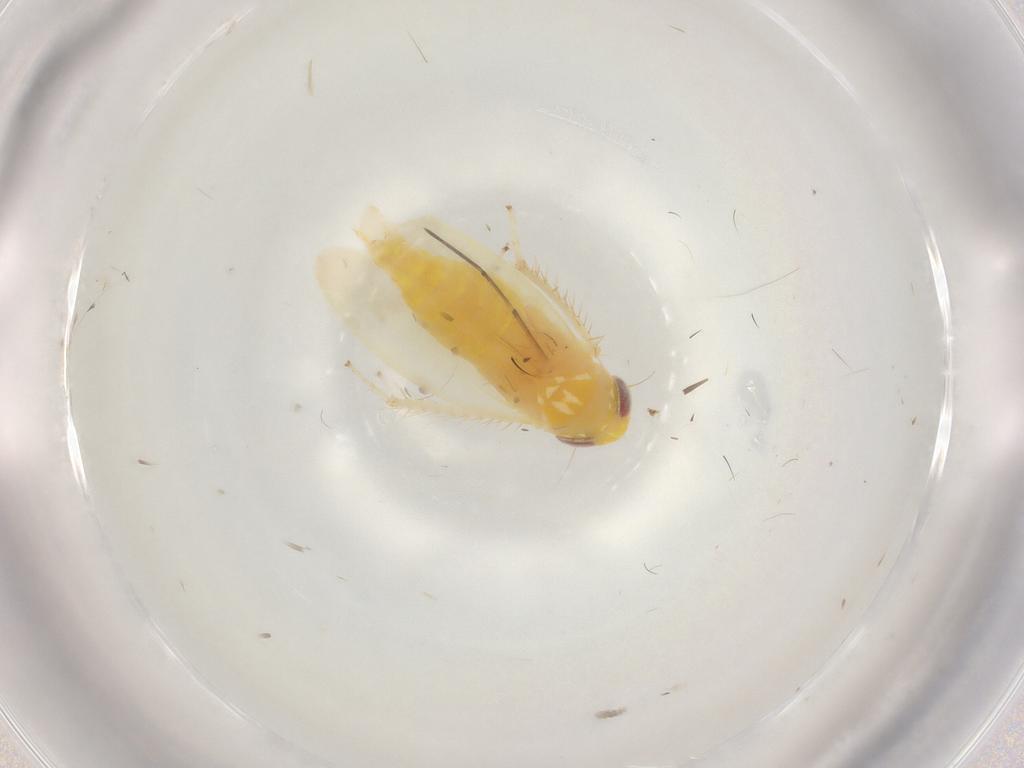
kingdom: Animalia
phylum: Arthropoda
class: Insecta
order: Hemiptera
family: Cicadellidae
